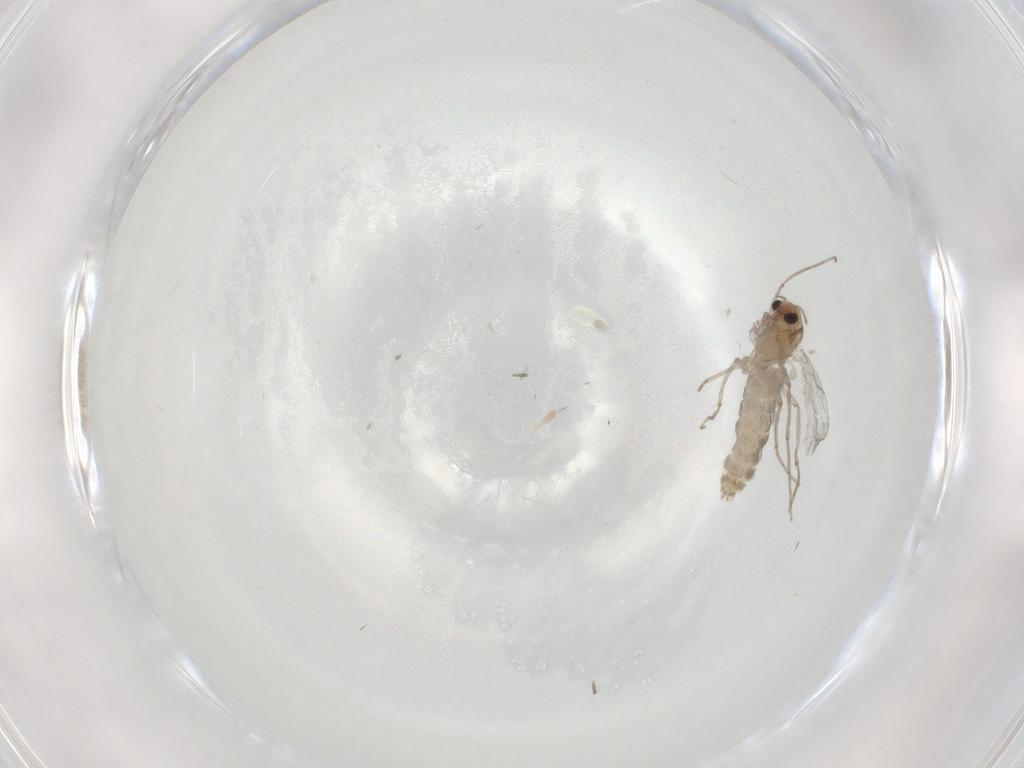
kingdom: Animalia
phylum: Arthropoda
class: Insecta
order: Diptera
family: Chironomidae
